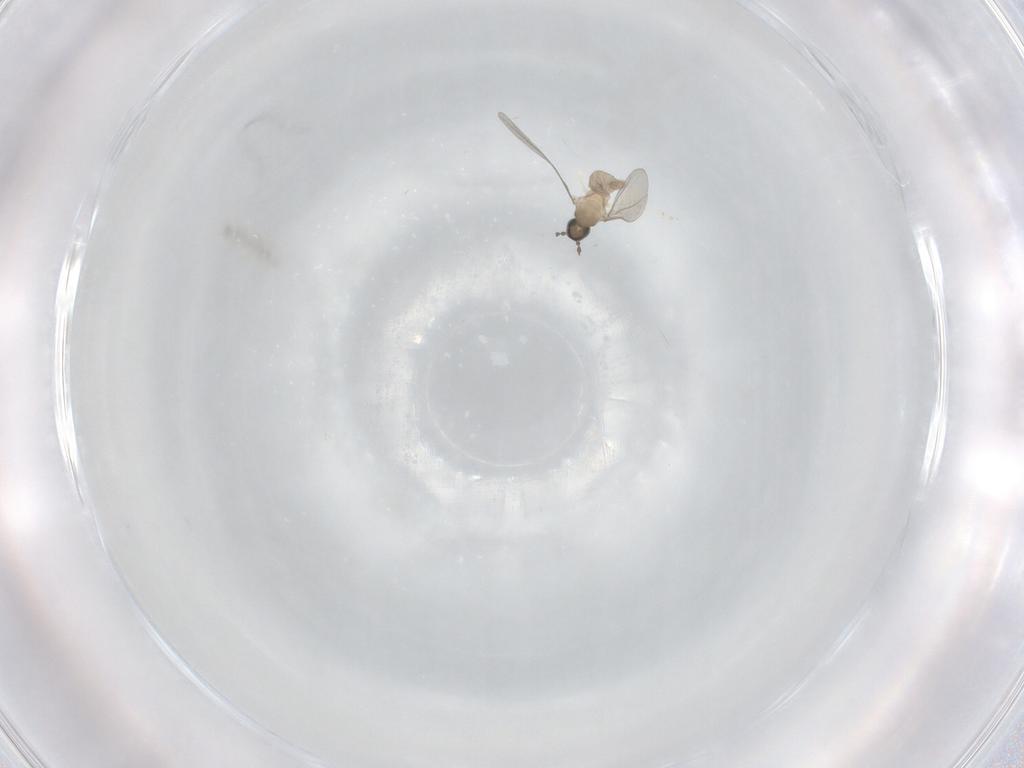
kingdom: Animalia
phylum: Arthropoda
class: Insecta
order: Diptera
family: Cecidomyiidae
